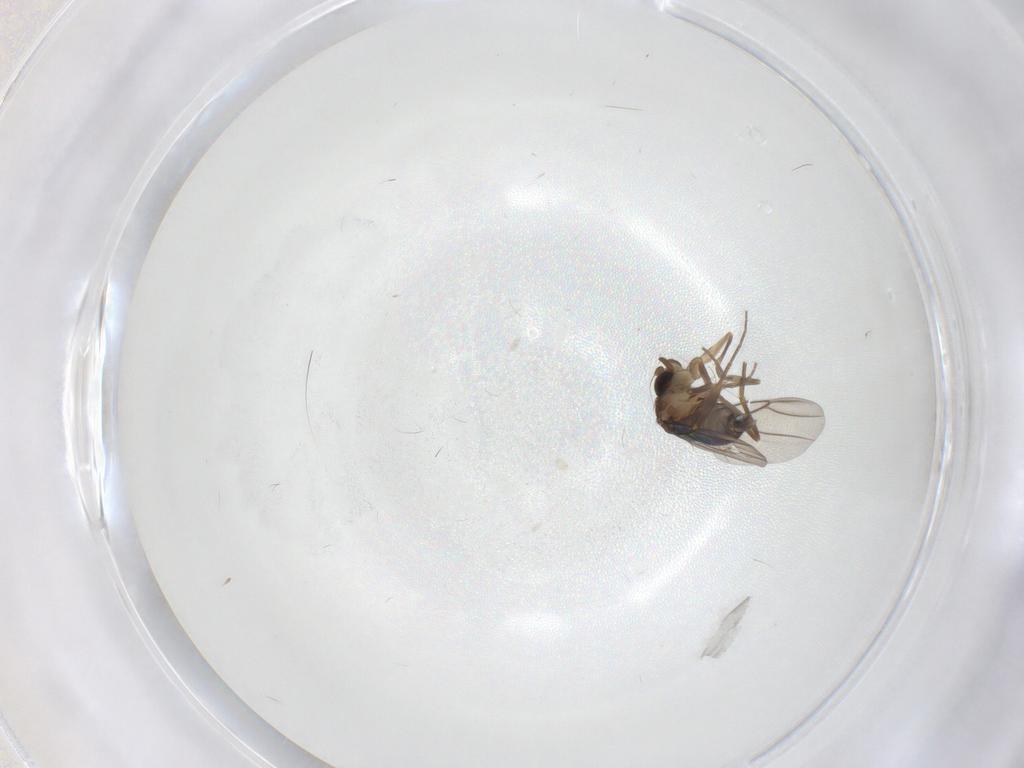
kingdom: Animalia
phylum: Arthropoda
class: Insecta
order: Diptera
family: Phoridae
